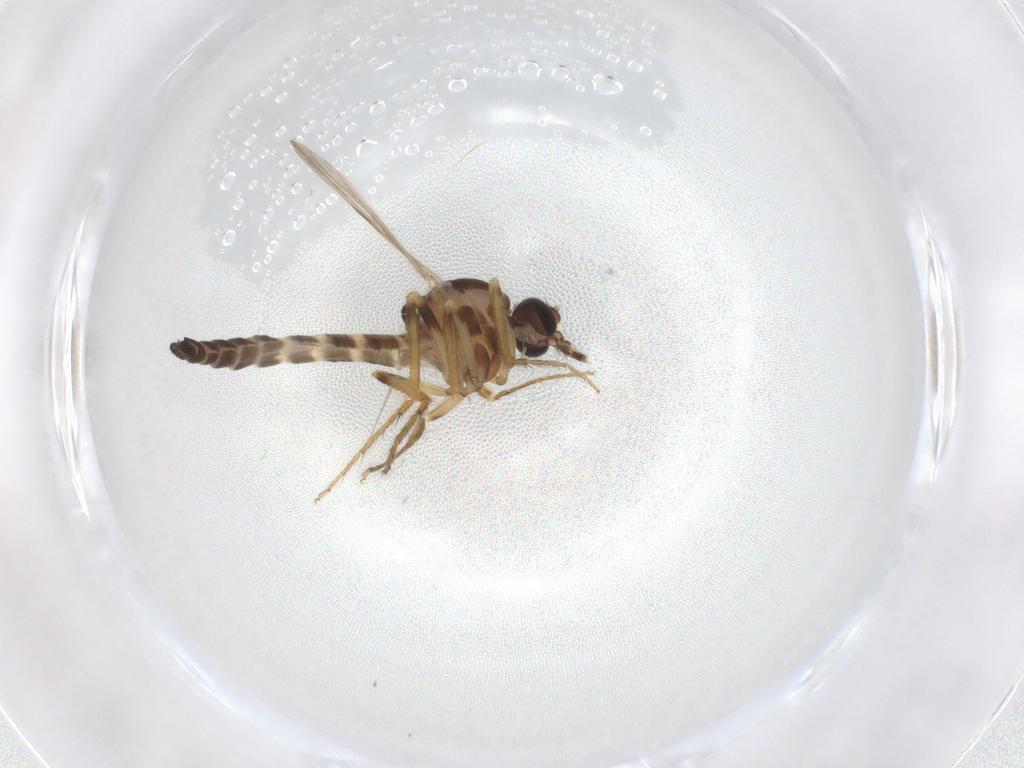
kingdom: Animalia
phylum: Arthropoda
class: Insecta
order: Diptera
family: Ceratopogonidae
